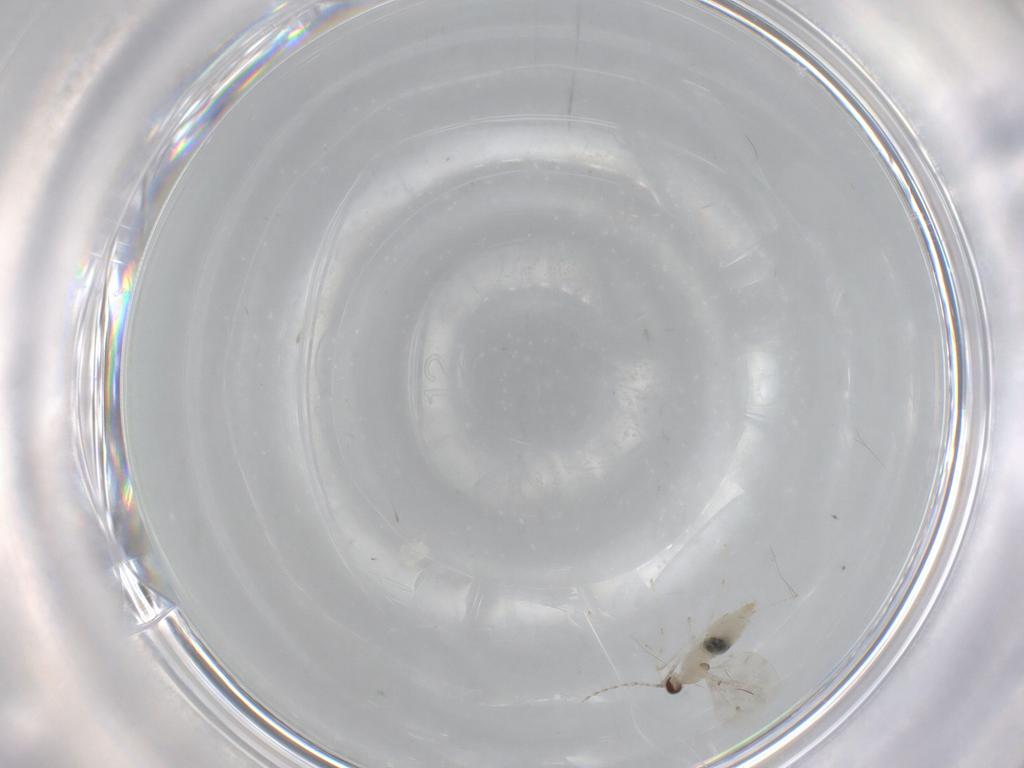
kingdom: Animalia
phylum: Arthropoda
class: Insecta
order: Diptera
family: Cecidomyiidae
